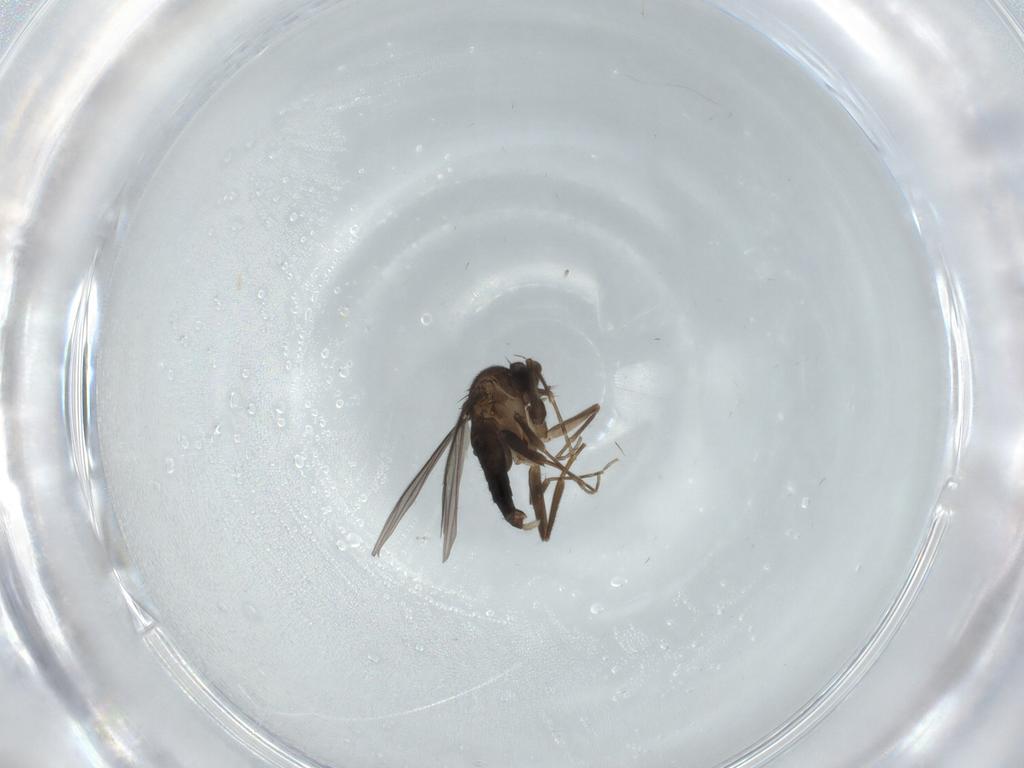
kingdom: Animalia
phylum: Arthropoda
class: Insecta
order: Diptera
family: Chironomidae
